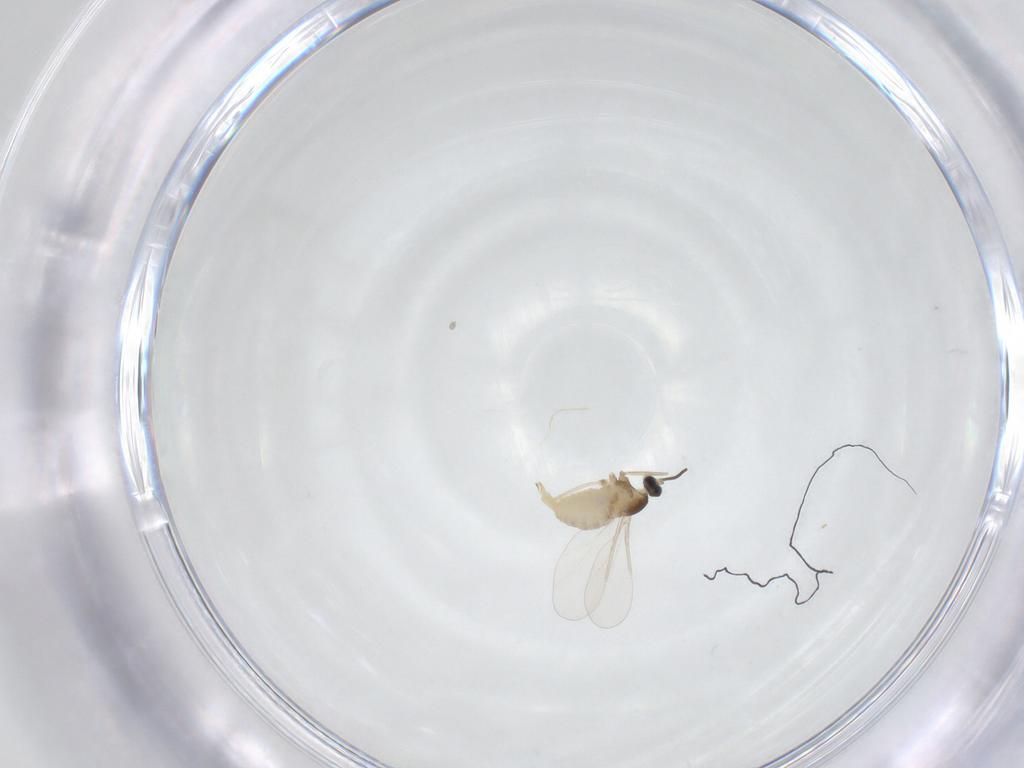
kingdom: Animalia
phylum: Arthropoda
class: Insecta
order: Diptera
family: Cecidomyiidae
